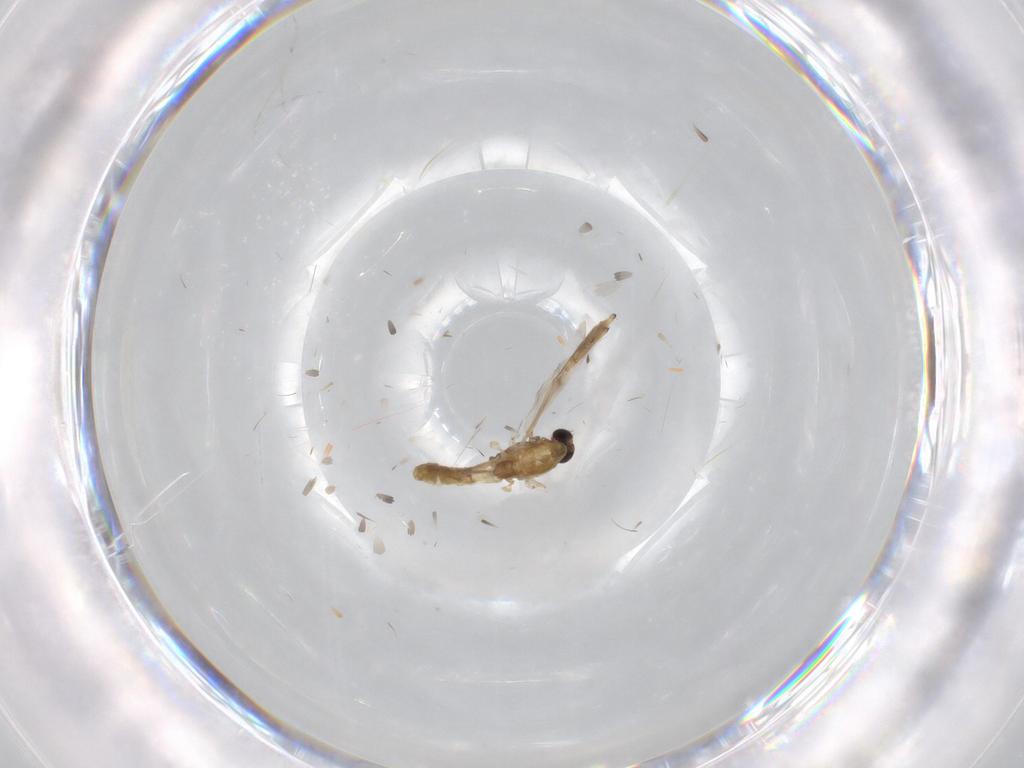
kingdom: Animalia
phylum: Arthropoda
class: Insecta
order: Diptera
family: Chironomidae
